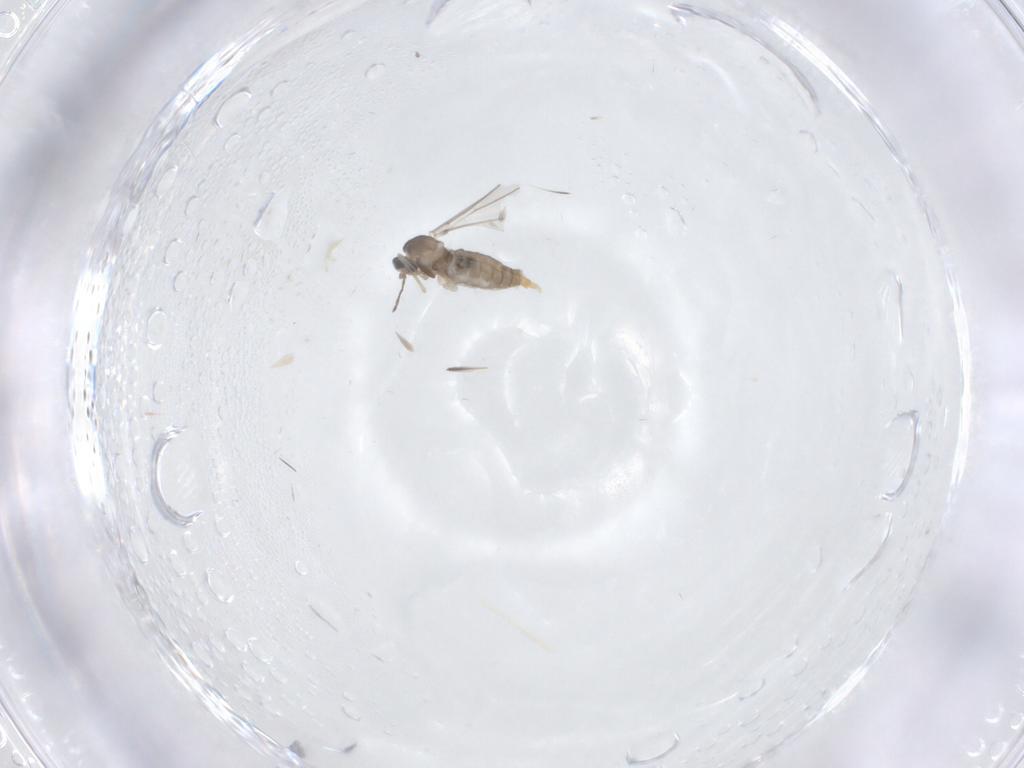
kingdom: Animalia
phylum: Arthropoda
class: Insecta
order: Diptera
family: Cecidomyiidae
